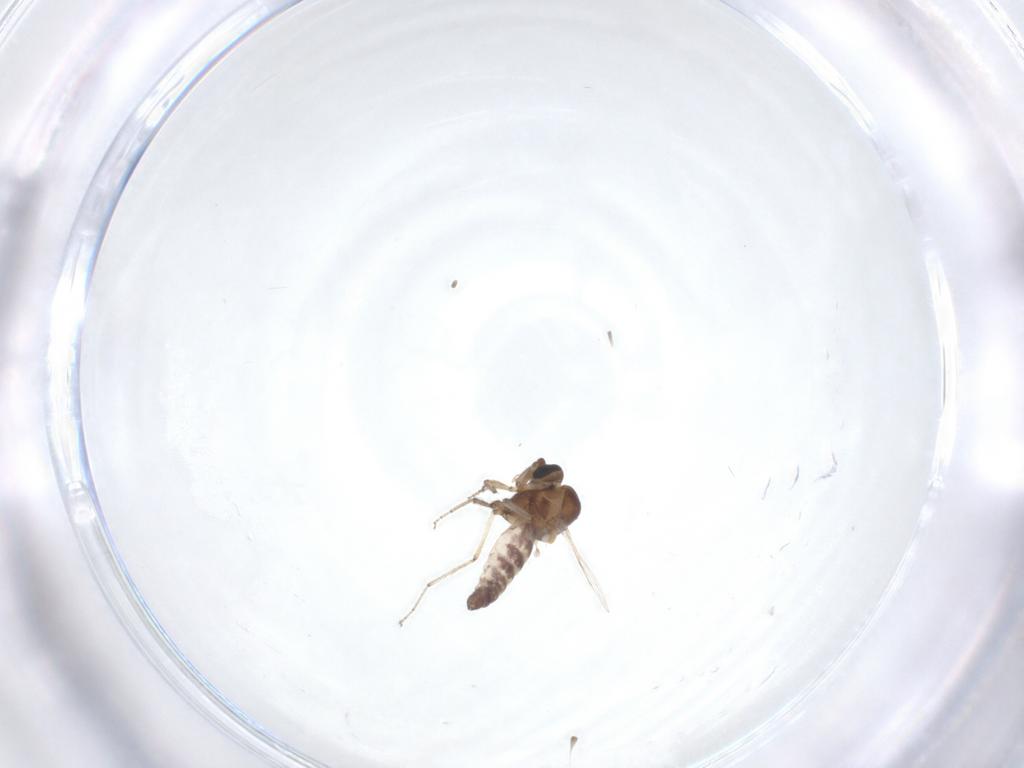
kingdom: Animalia
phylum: Arthropoda
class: Insecta
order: Diptera
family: Ceratopogonidae
